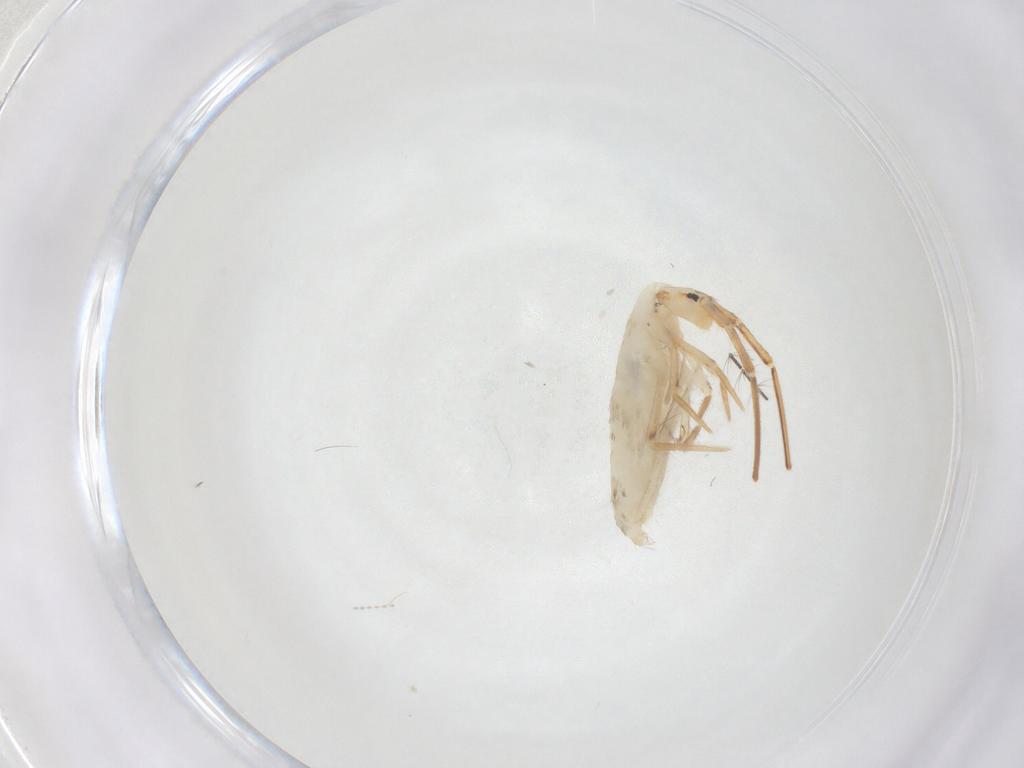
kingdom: Animalia
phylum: Arthropoda
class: Collembola
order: Entomobryomorpha
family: Entomobryidae
